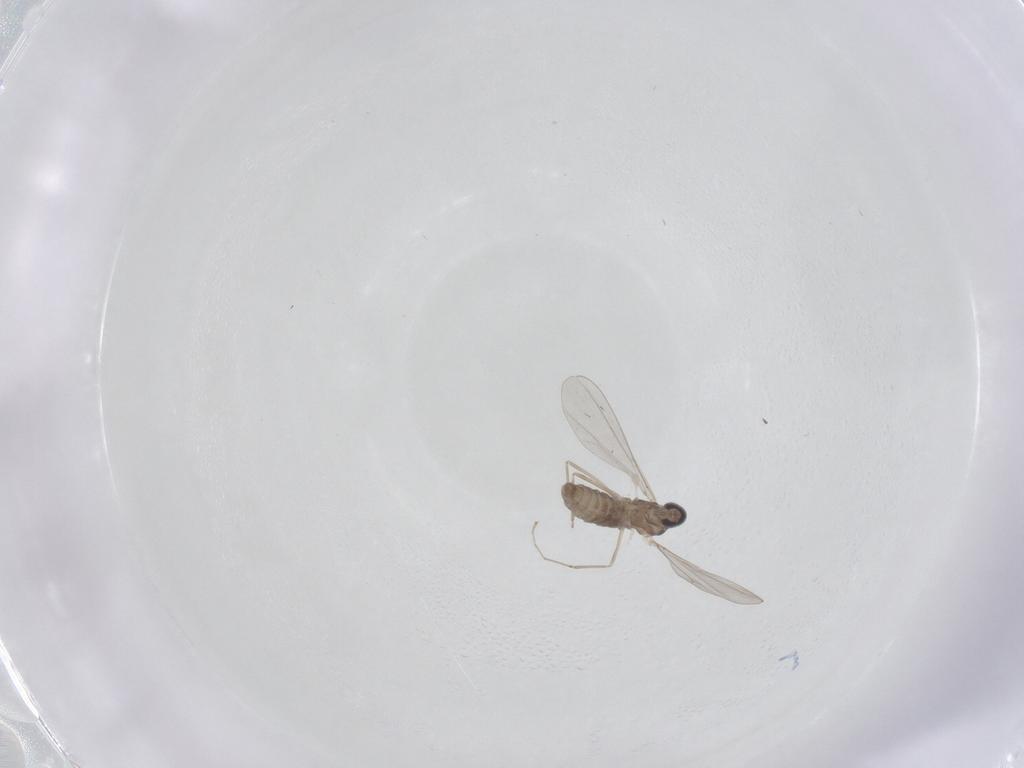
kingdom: Animalia
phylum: Arthropoda
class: Insecta
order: Diptera
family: Cecidomyiidae
